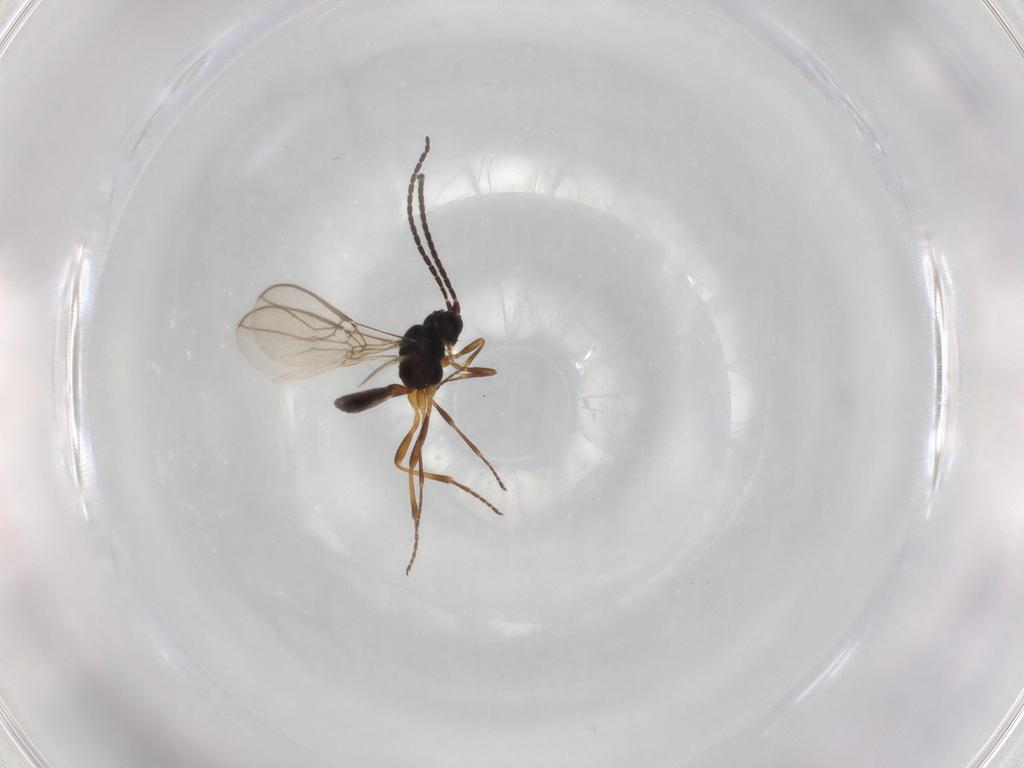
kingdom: Animalia
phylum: Arthropoda
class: Insecta
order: Hymenoptera
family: Braconidae
